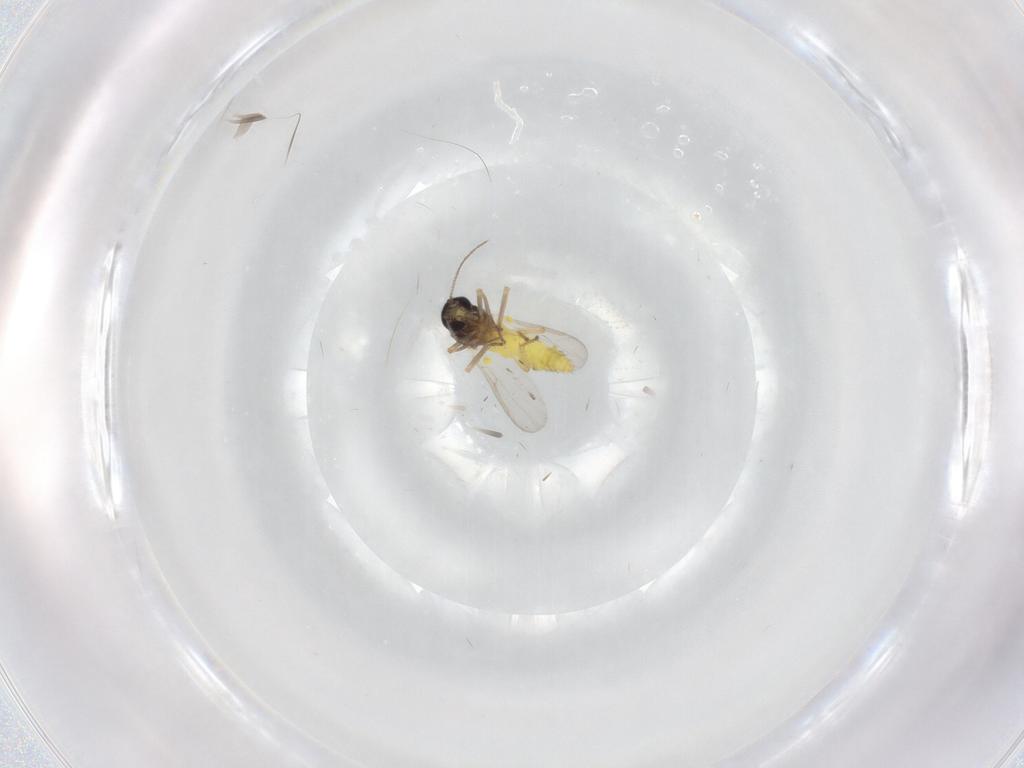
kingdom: Animalia
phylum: Arthropoda
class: Insecta
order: Diptera
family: Ceratopogonidae
